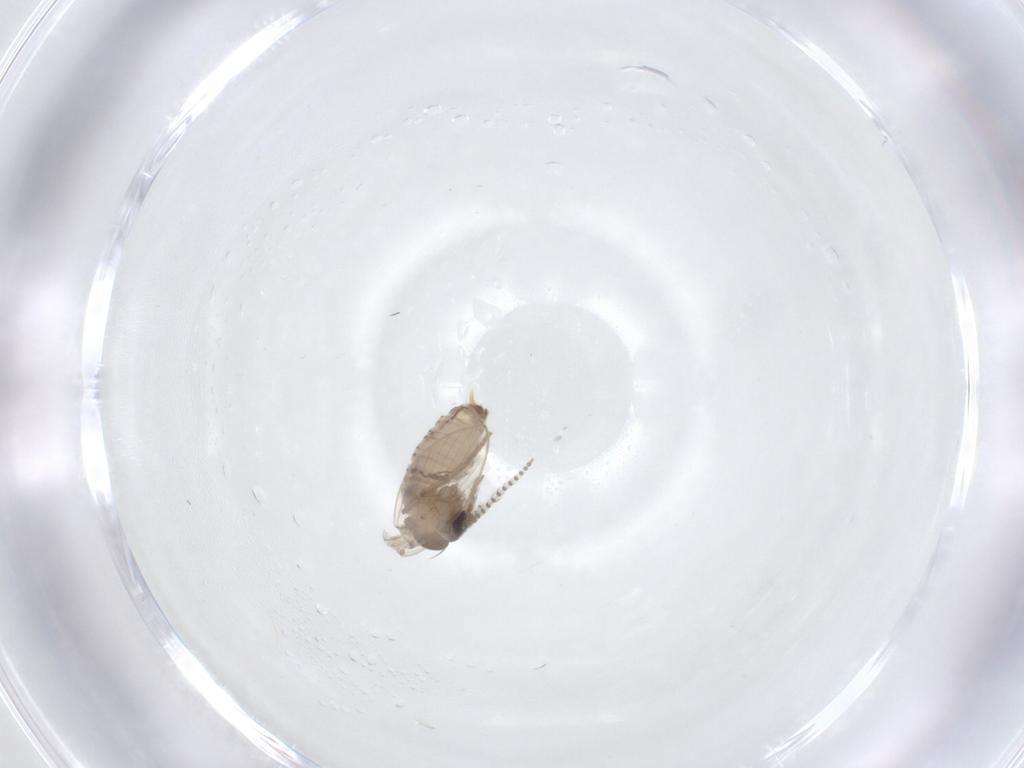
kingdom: Animalia
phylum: Arthropoda
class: Insecta
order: Diptera
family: Psychodidae
